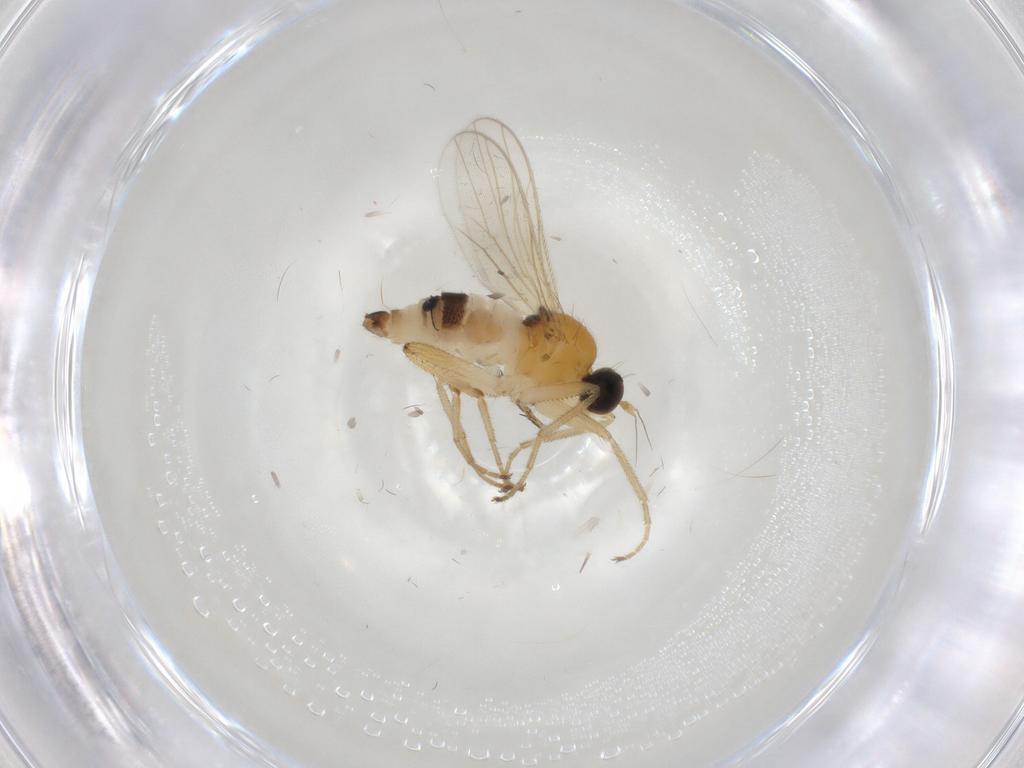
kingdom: Animalia
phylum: Arthropoda
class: Insecta
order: Diptera
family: Hybotidae
